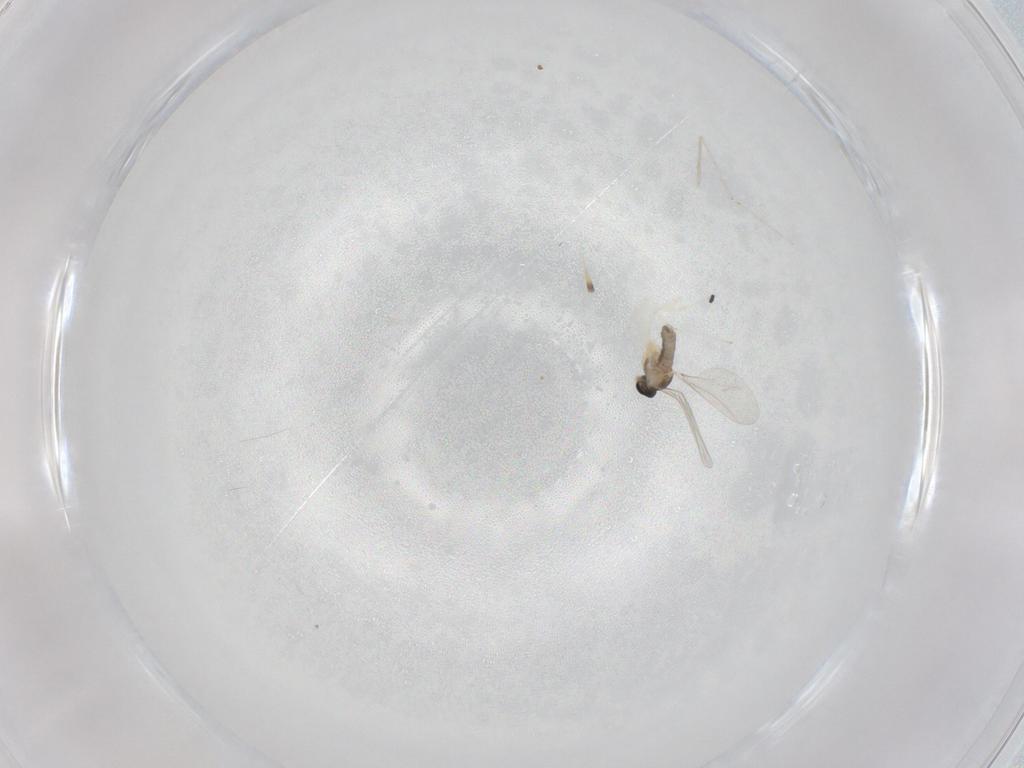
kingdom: Animalia
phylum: Arthropoda
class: Insecta
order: Diptera
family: Cecidomyiidae
